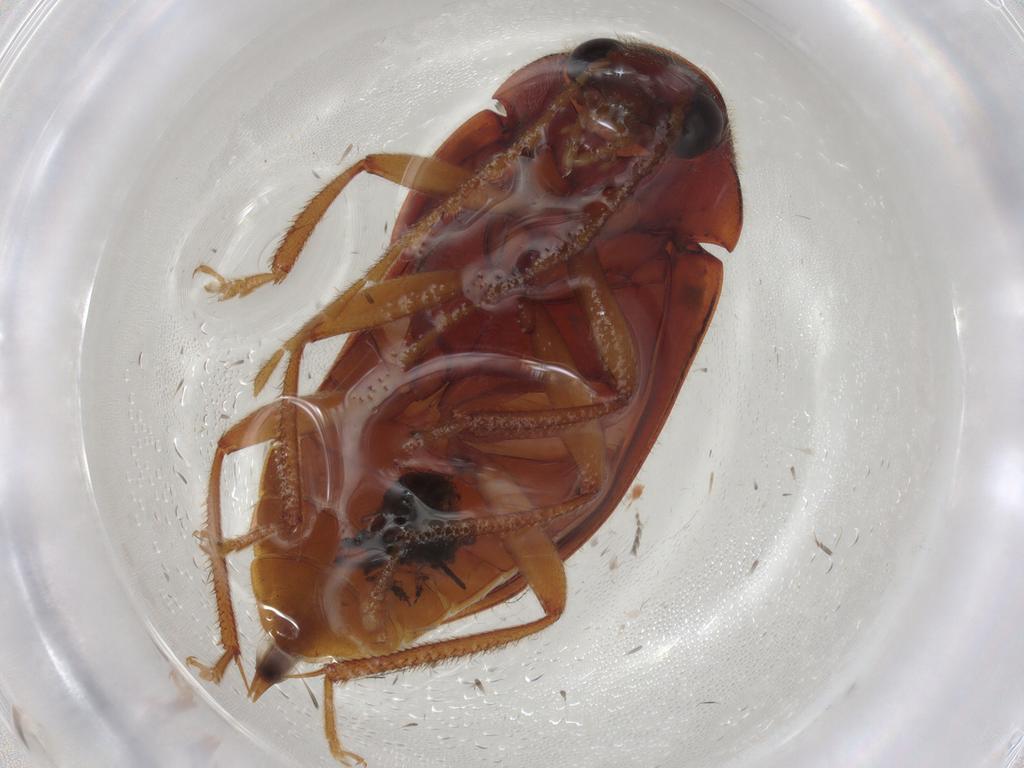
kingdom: Animalia
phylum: Arthropoda
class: Insecta
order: Coleoptera
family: Ptilodactylidae
